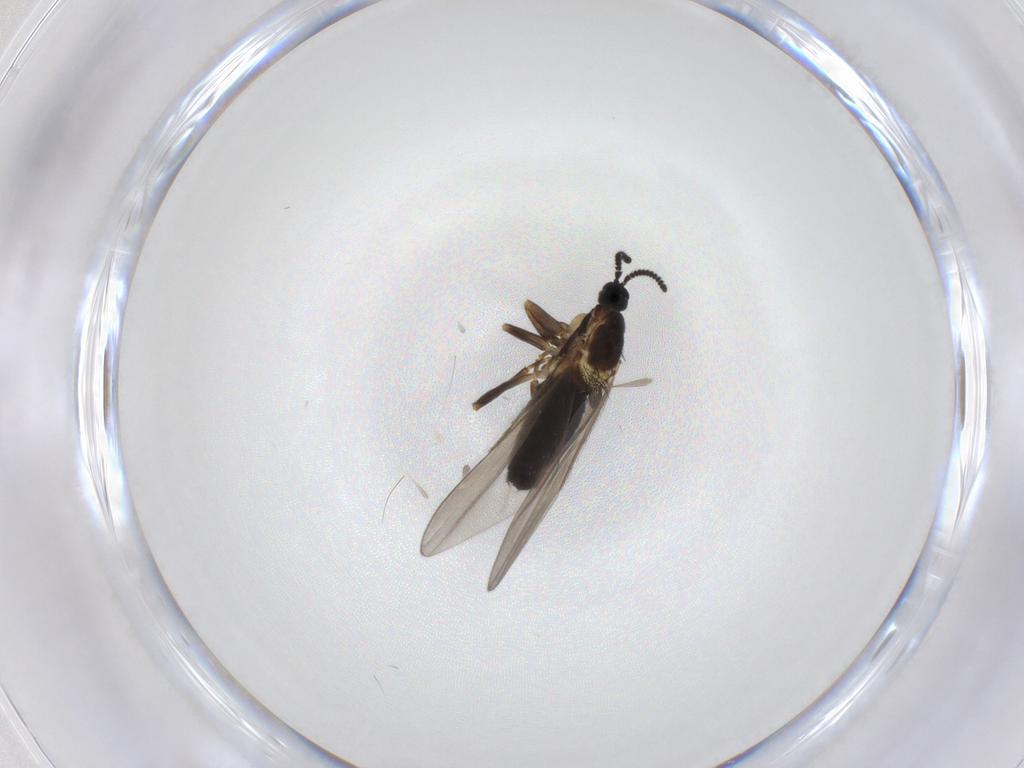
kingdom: Animalia
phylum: Arthropoda
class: Insecta
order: Diptera
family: Scatopsidae
